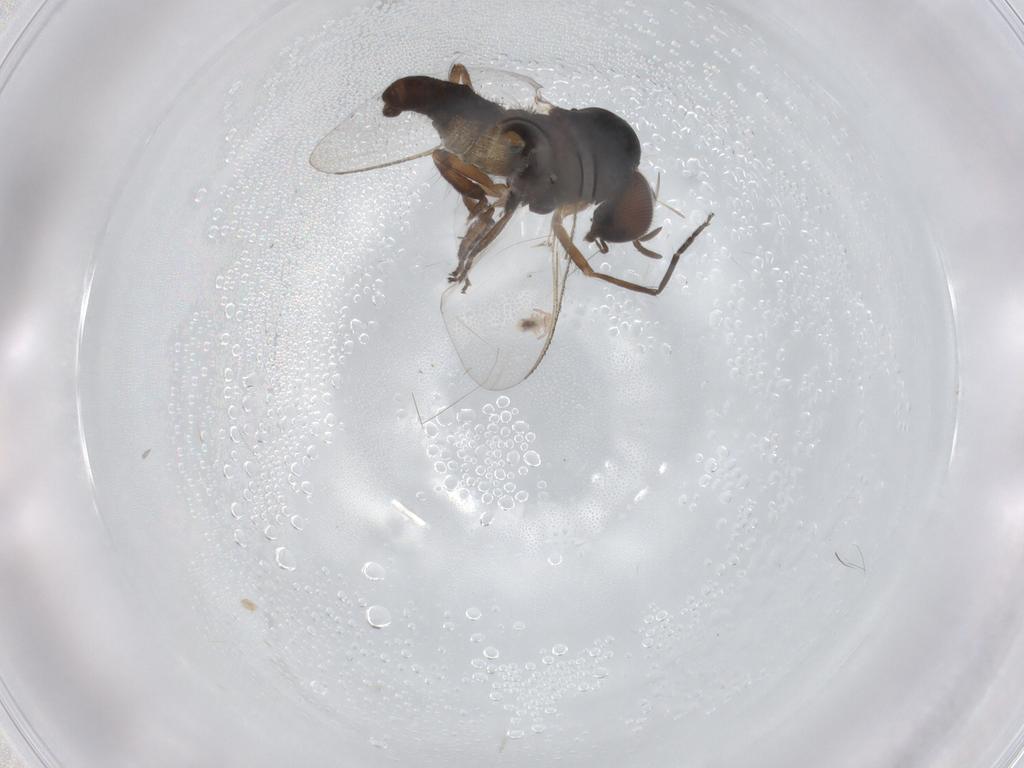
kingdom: Animalia
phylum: Arthropoda
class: Insecta
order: Diptera
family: Simuliidae
